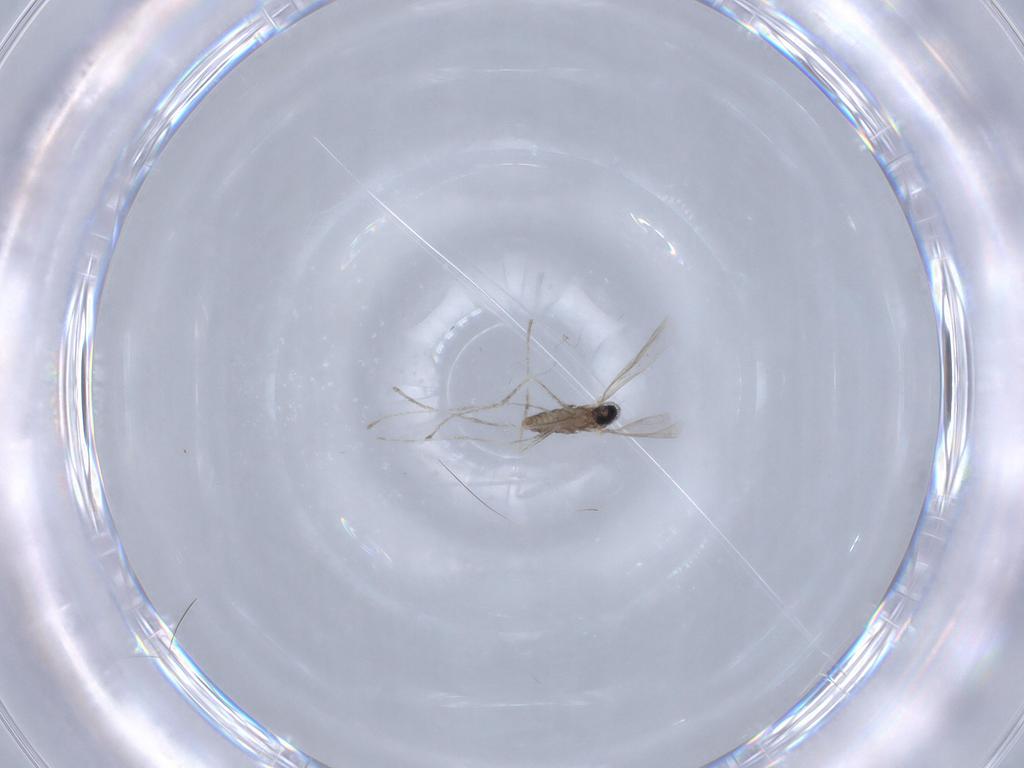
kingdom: Animalia
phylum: Arthropoda
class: Insecta
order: Diptera
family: Cecidomyiidae
